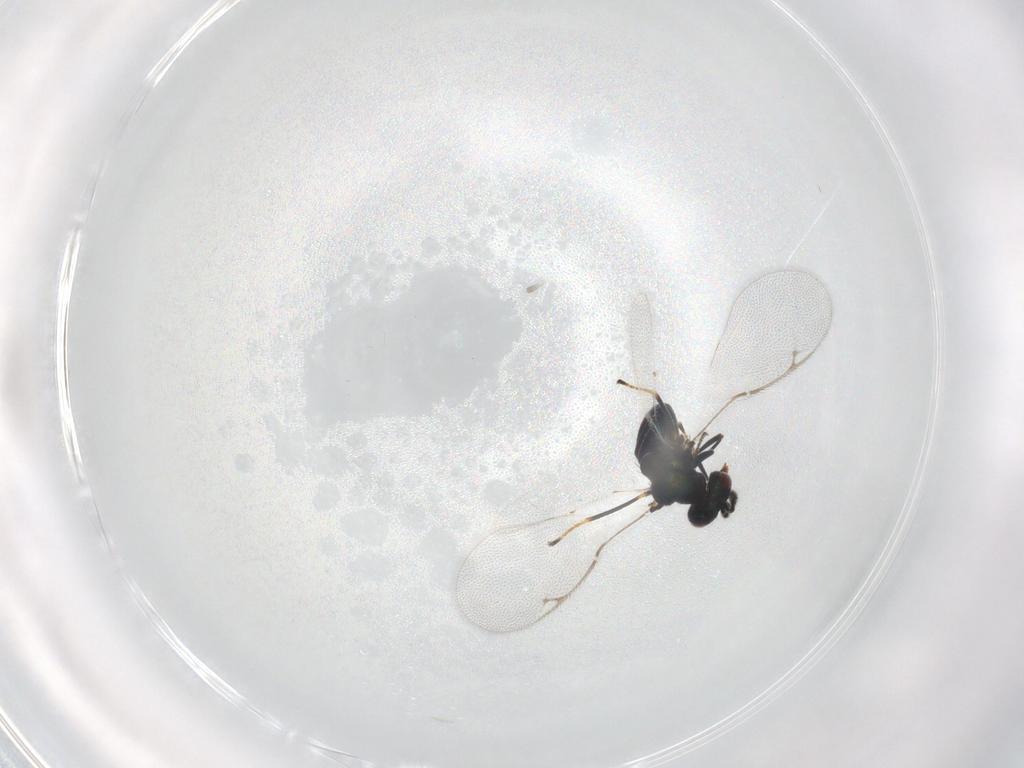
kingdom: Animalia
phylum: Arthropoda
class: Insecta
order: Hymenoptera
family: Pteromalidae
